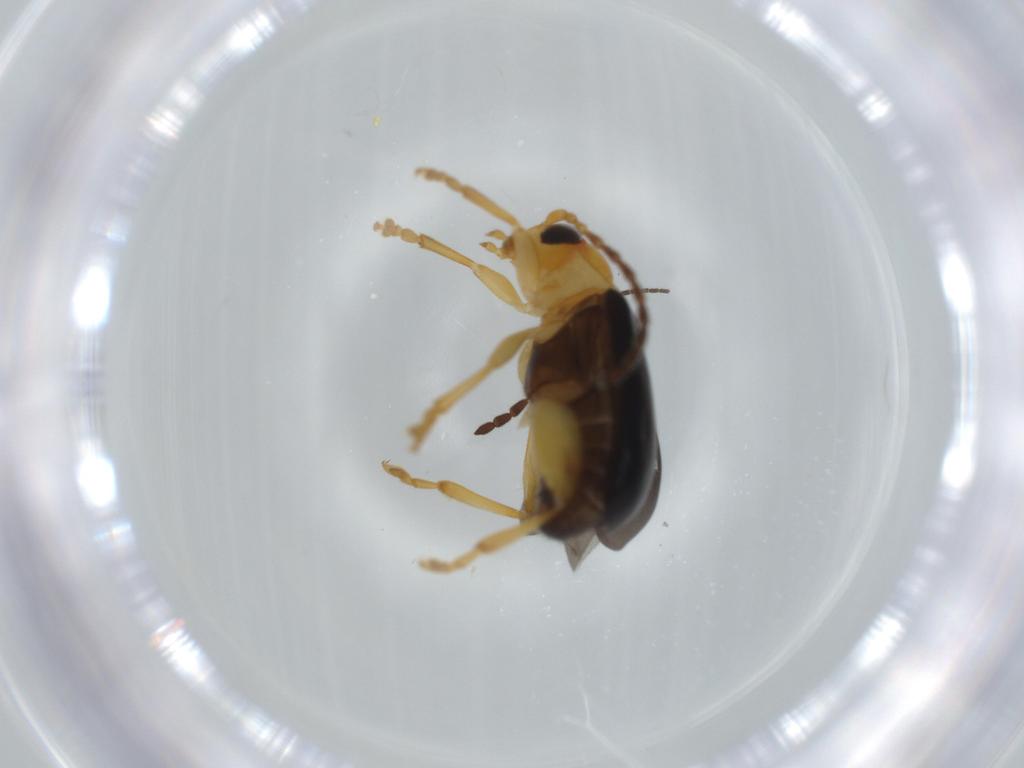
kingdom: Animalia
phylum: Arthropoda
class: Insecta
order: Coleoptera
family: Chrysomelidae
